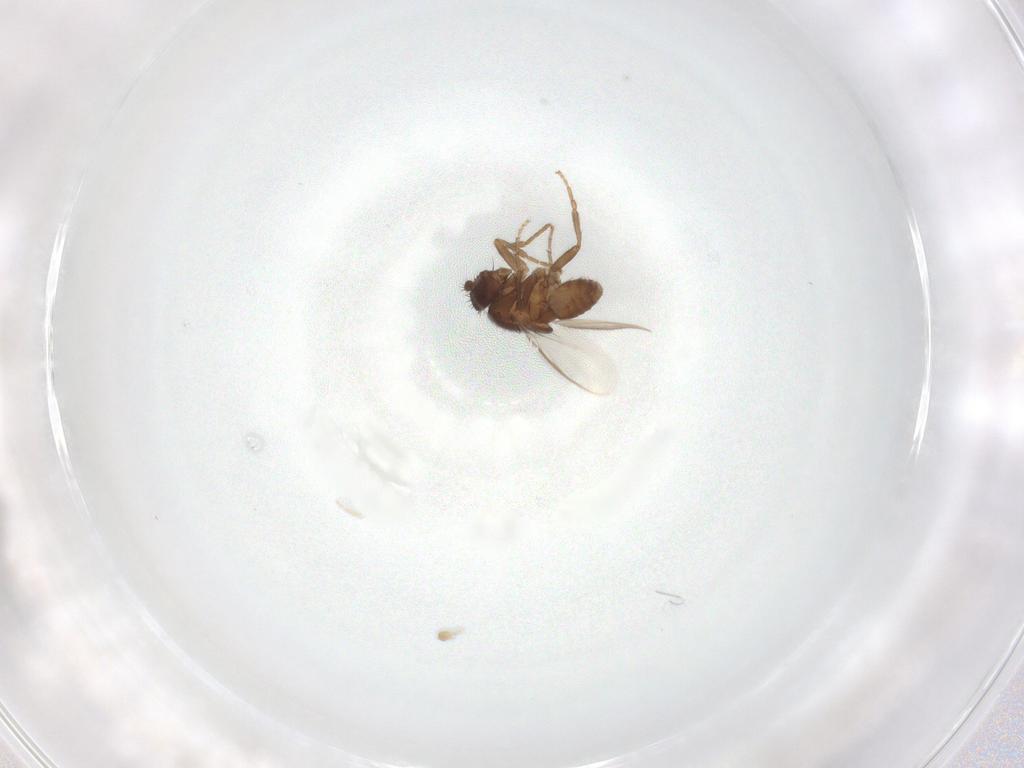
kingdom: Animalia
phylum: Arthropoda
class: Insecta
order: Diptera
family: Sphaeroceridae
